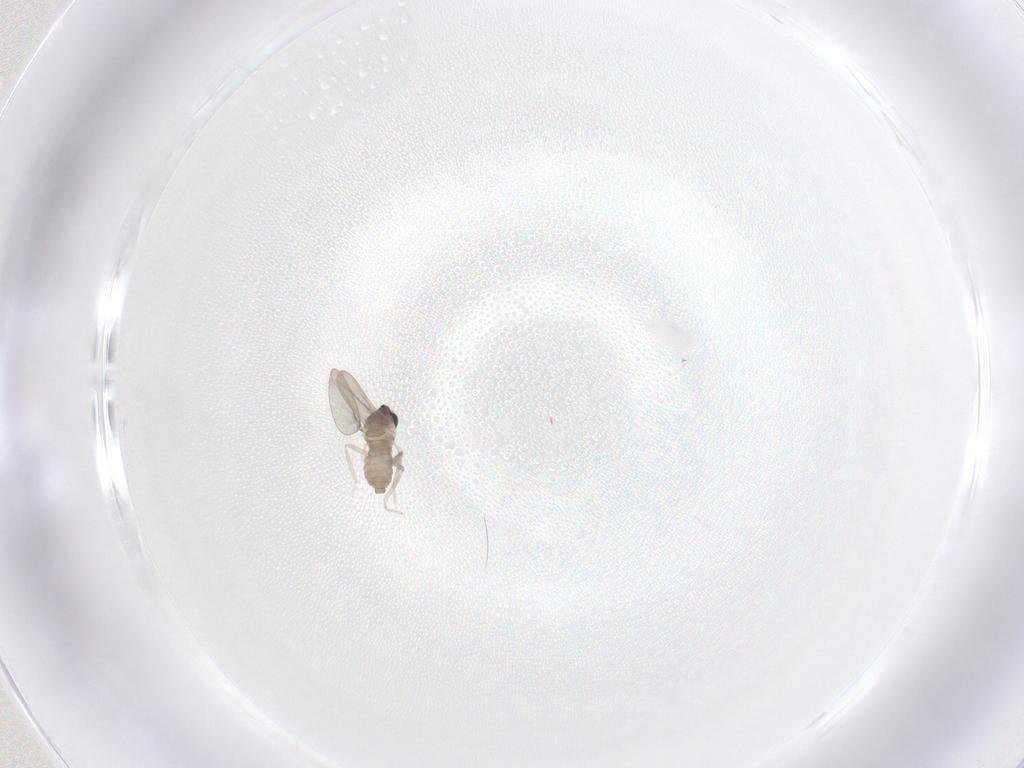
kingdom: Animalia
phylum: Arthropoda
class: Insecta
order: Diptera
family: Cecidomyiidae
